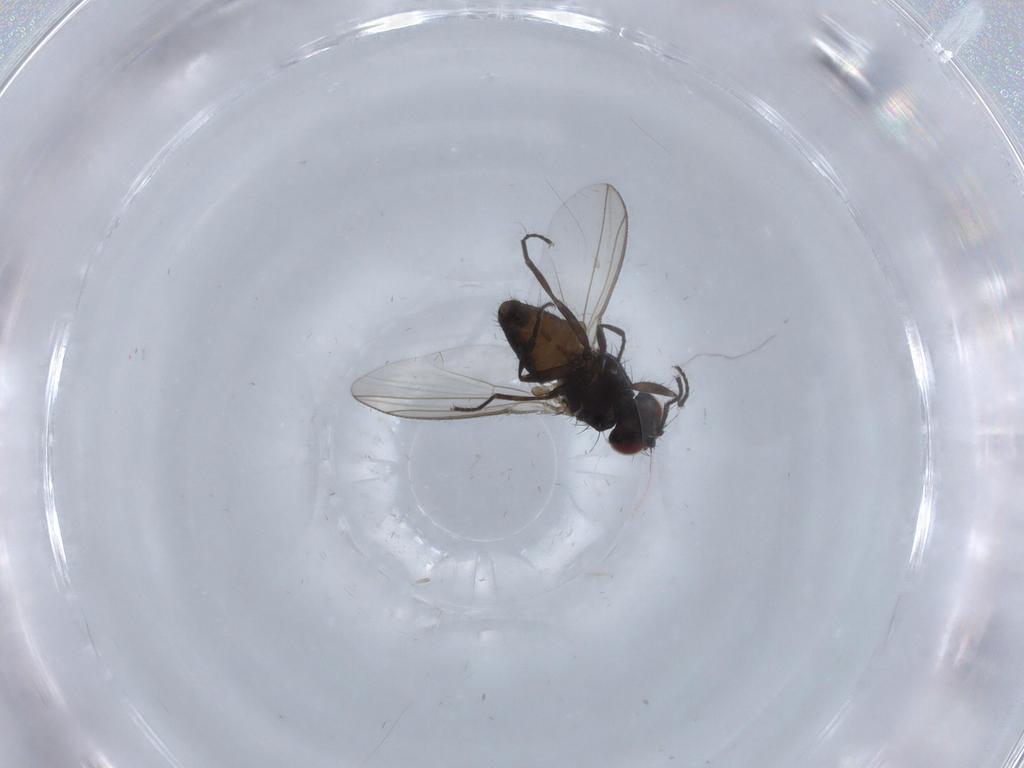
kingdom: Animalia
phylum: Arthropoda
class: Insecta
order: Diptera
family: Carnidae
